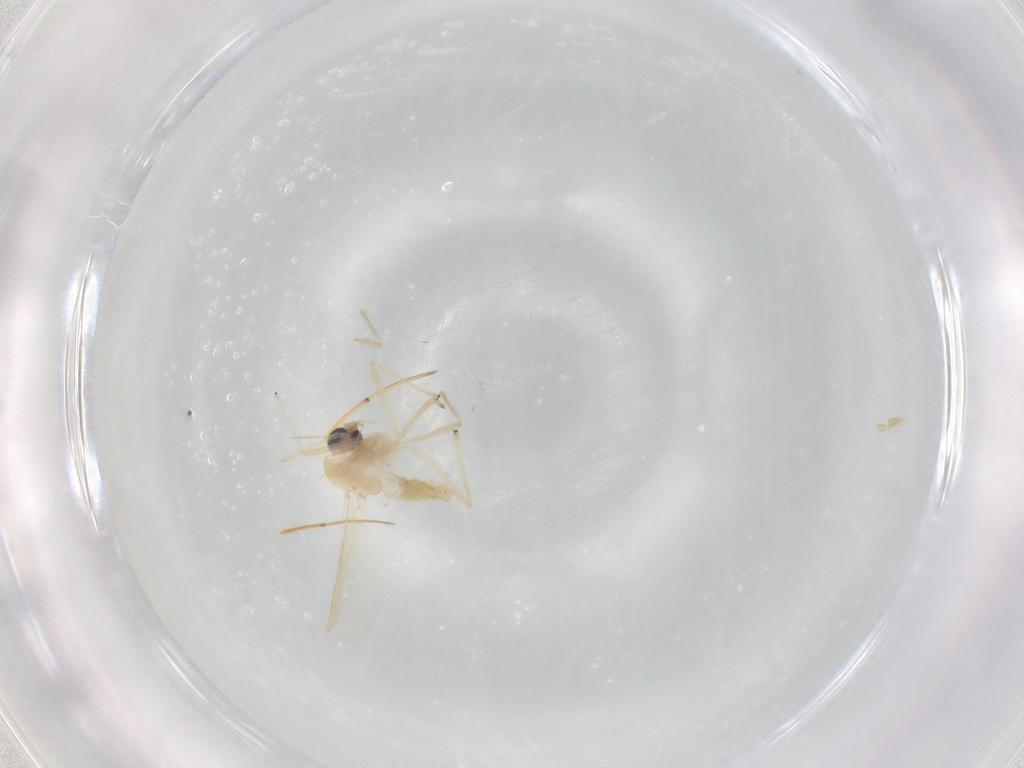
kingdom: Animalia
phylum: Arthropoda
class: Insecta
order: Diptera
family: Chironomidae
